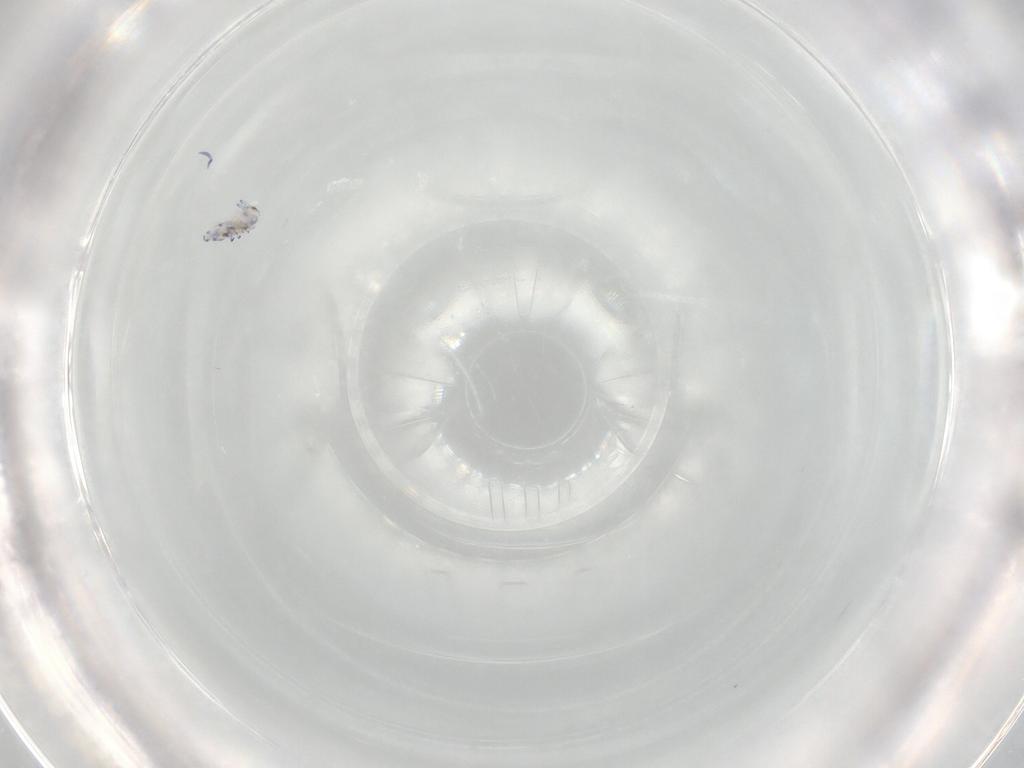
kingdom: Animalia
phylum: Arthropoda
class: Collembola
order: Entomobryomorpha
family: Entomobryidae
